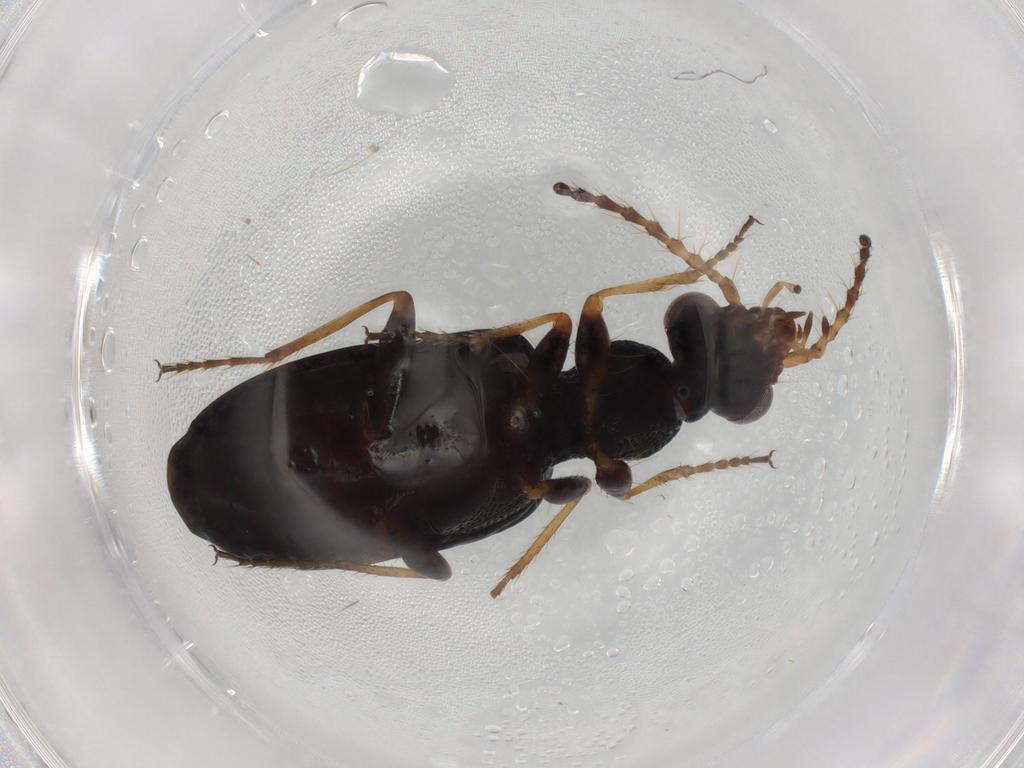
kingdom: Animalia
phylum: Arthropoda
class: Insecta
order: Coleoptera
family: Carabidae
